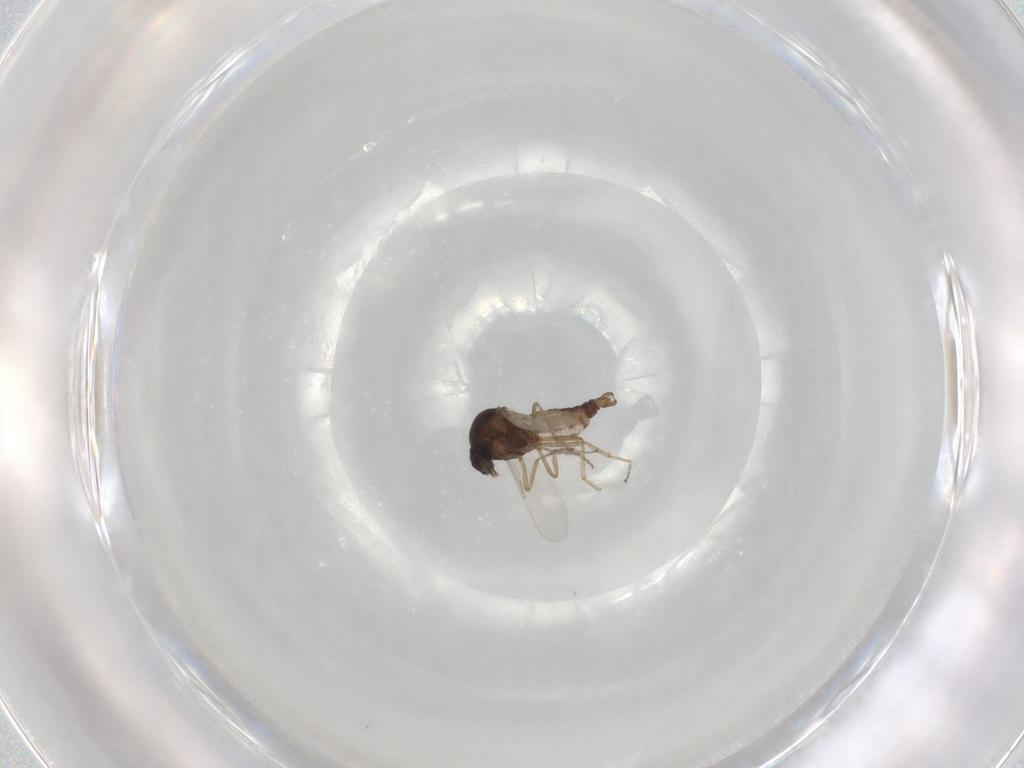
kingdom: Animalia
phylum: Arthropoda
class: Insecta
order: Diptera
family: Ceratopogonidae
